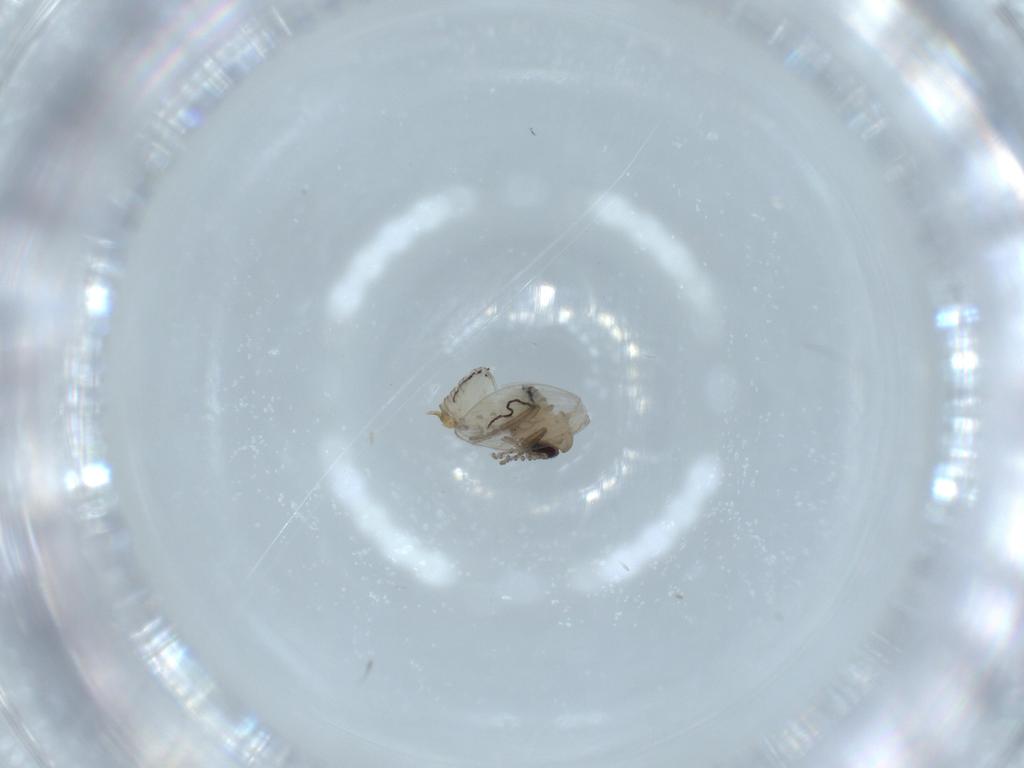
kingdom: Animalia
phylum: Arthropoda
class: Insecta
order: Diptera
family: Psychodidae
